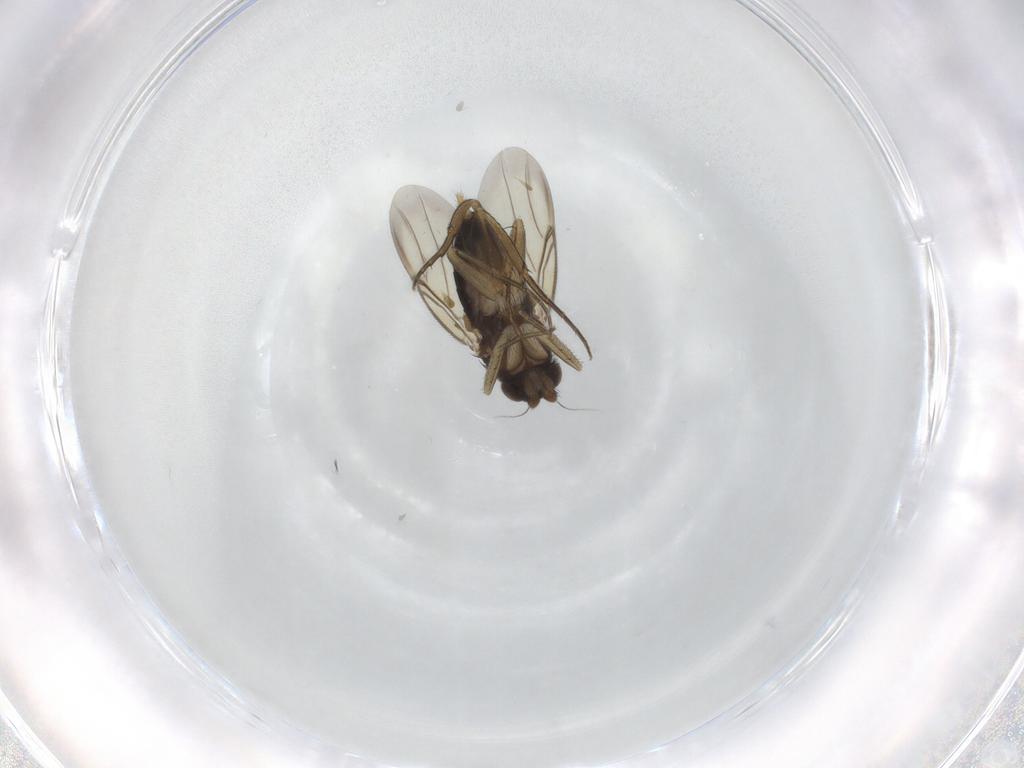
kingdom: Animalia
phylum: Arthropoda
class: Insecta
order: Diptera
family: Phoridae
